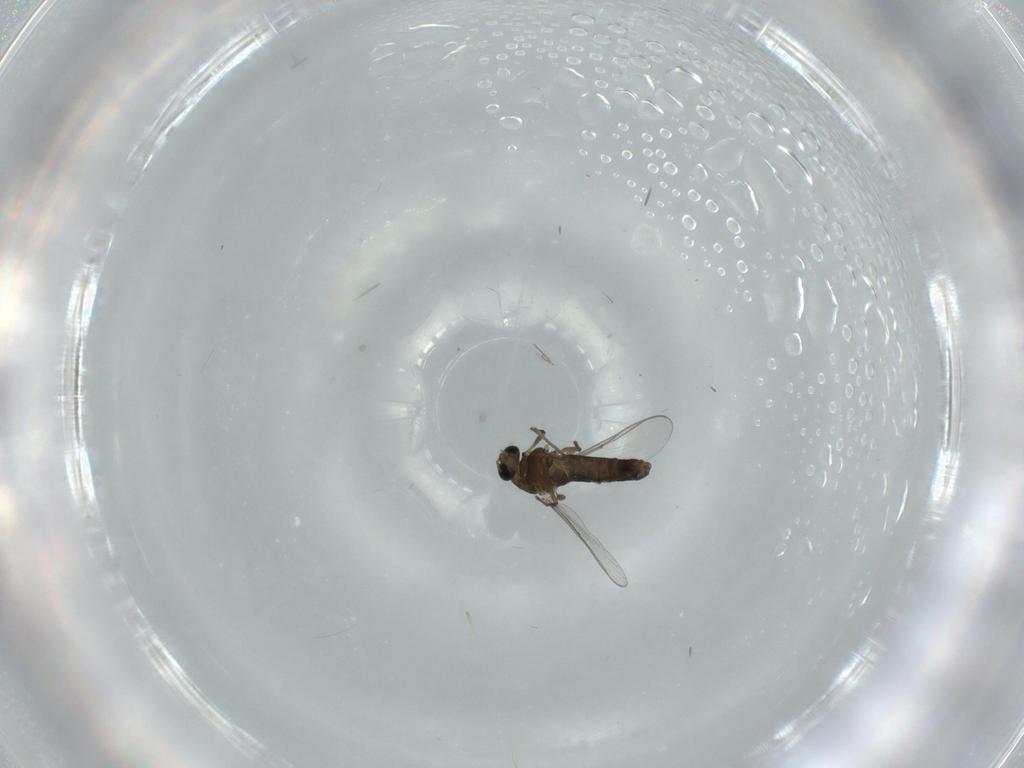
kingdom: Animalia
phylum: Arthropoda
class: Insecta
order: Diptera
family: Chironomidae
